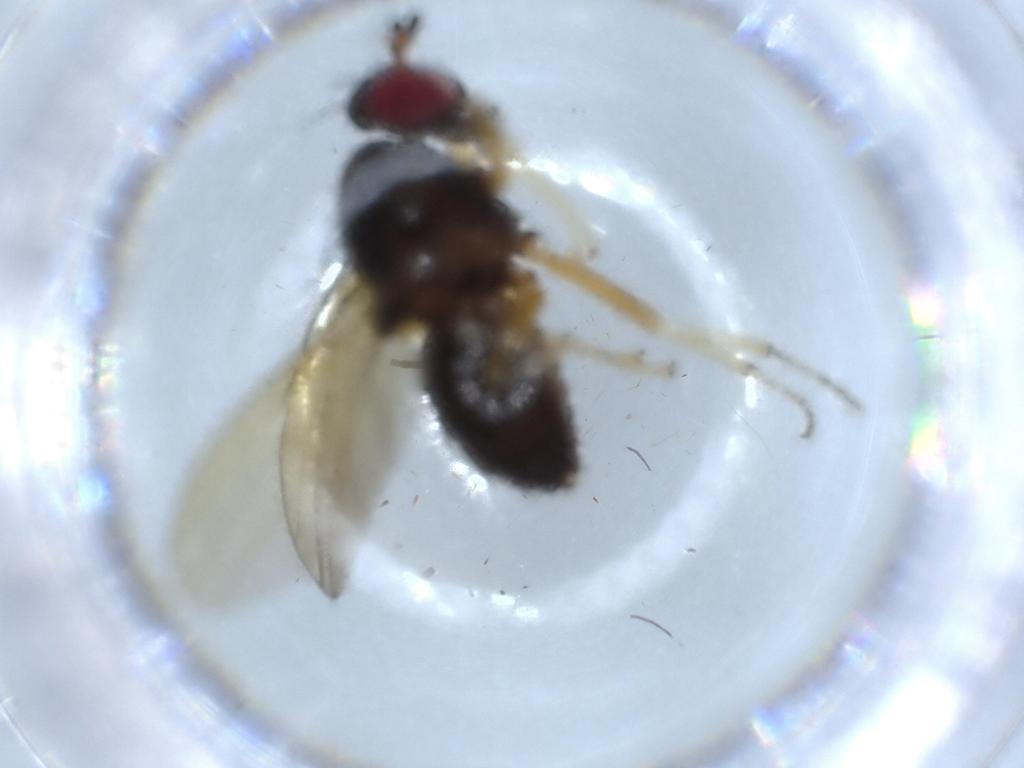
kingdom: Animalia
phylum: Arthropoda
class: Insecta
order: Diptera
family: Sciaridae
